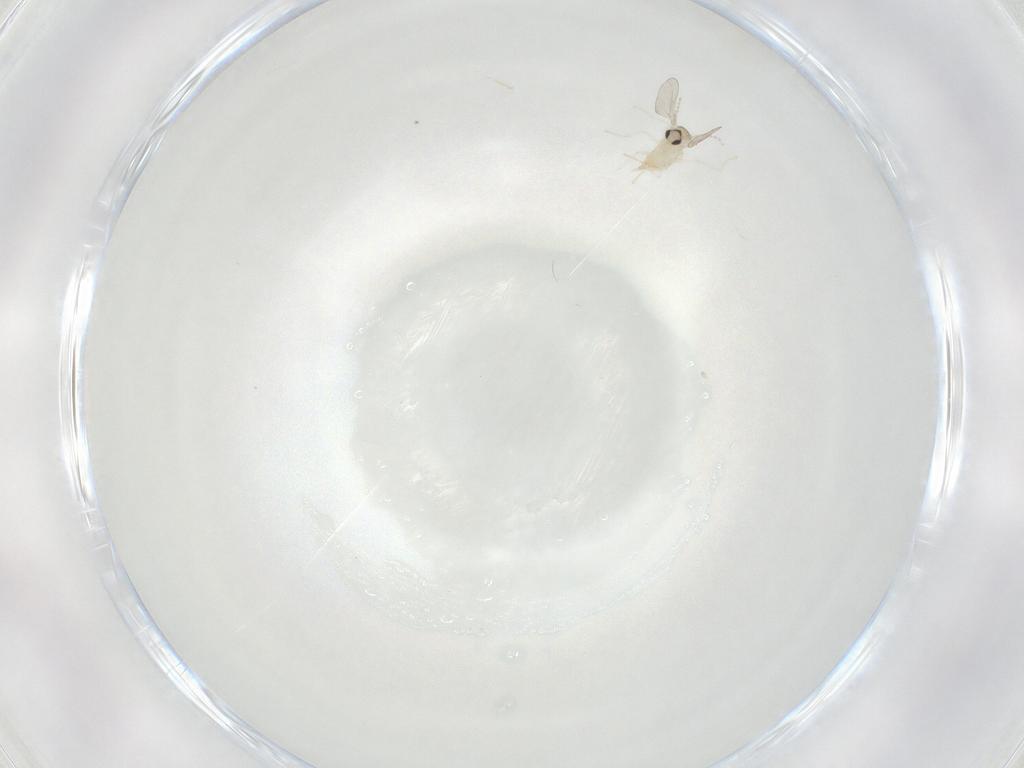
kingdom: Animalia
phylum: Arthropoda
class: Insecta
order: Diptera
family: Cecidomyiidae
